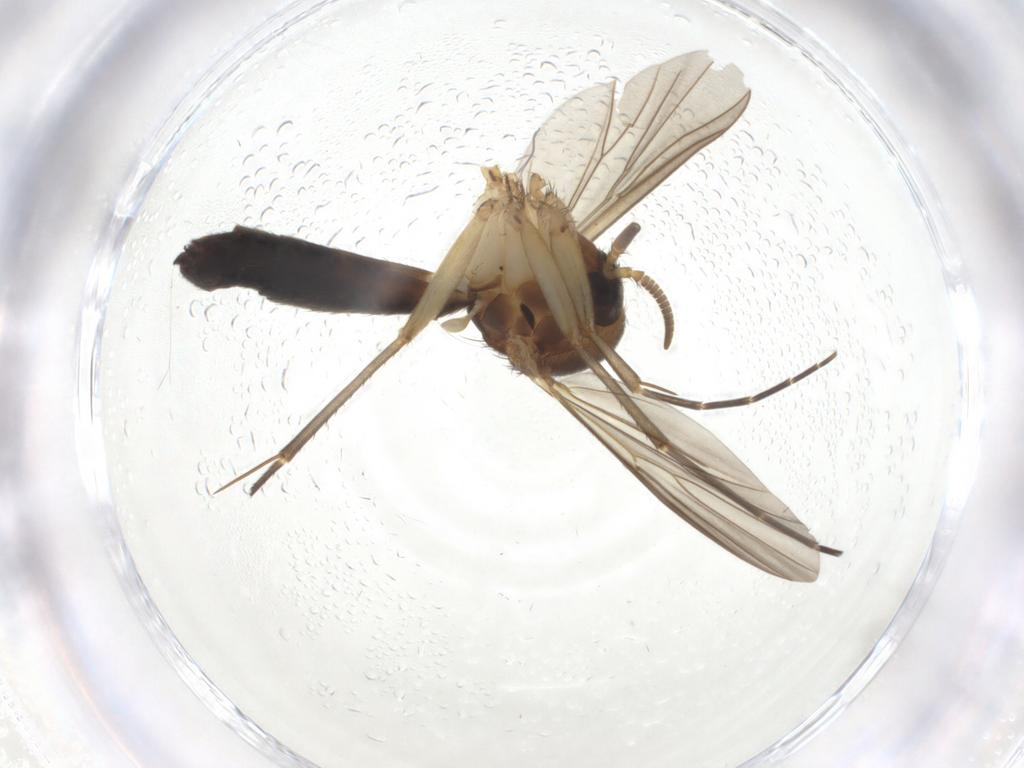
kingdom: Animalia
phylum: Arthropoda
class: Insecta
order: Diptera
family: Mycetophilidae
